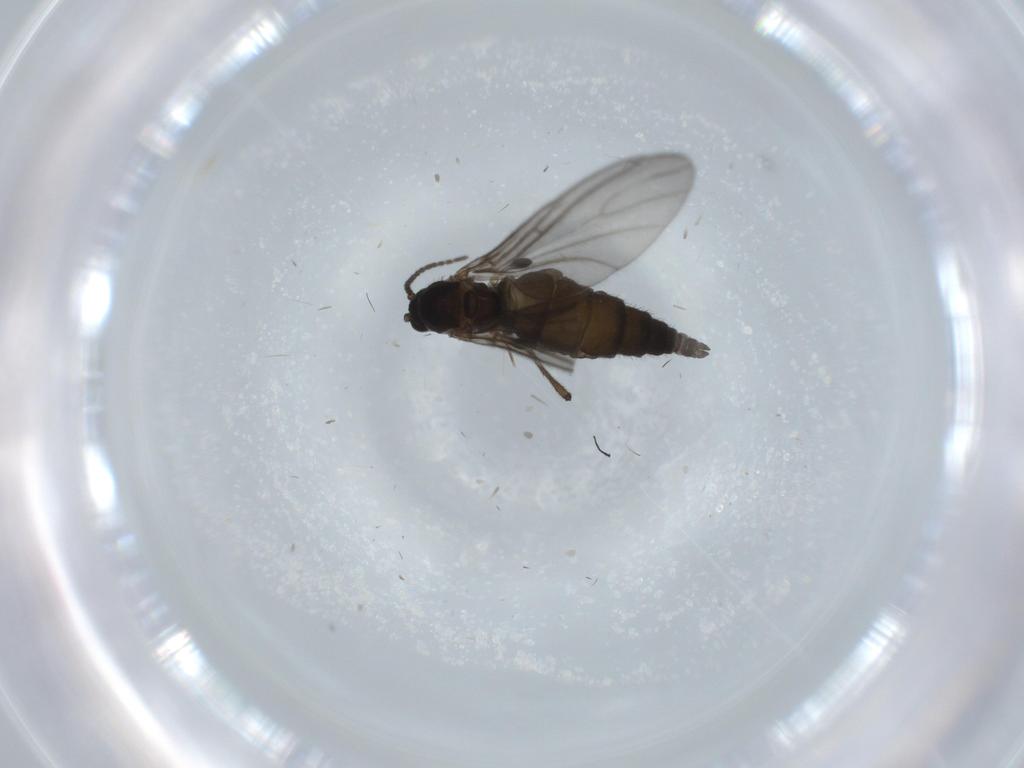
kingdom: Animalia
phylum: Arthropoda
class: Insecta
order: Diptera
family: Sciaridae
